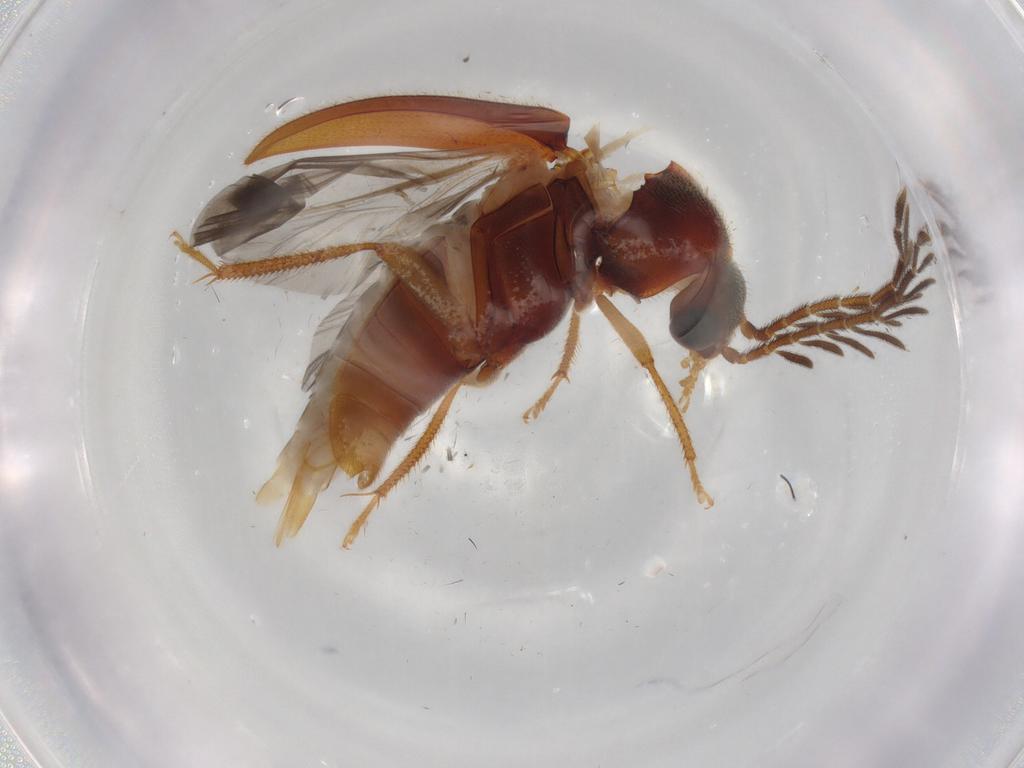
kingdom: Animalia
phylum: Arthropoda
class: Insecta
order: Coleoptera
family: Ptilodactylidae
